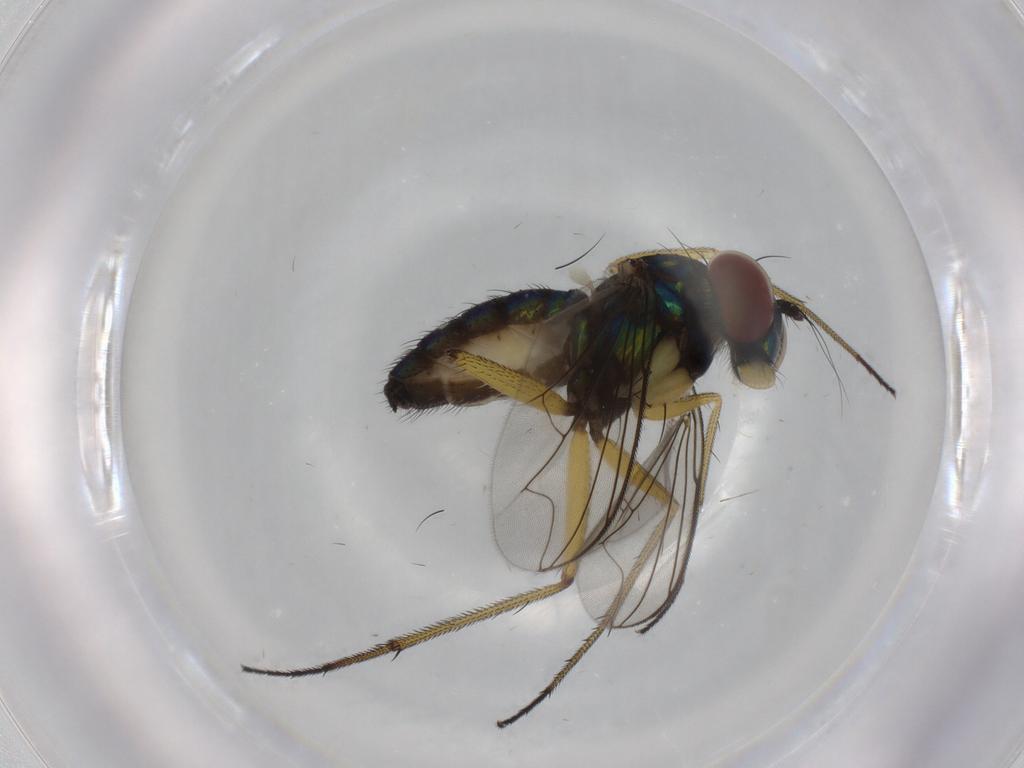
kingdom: Animalia
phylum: Arthropoda
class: Insecta
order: Diptera
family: Dolichopodidae
